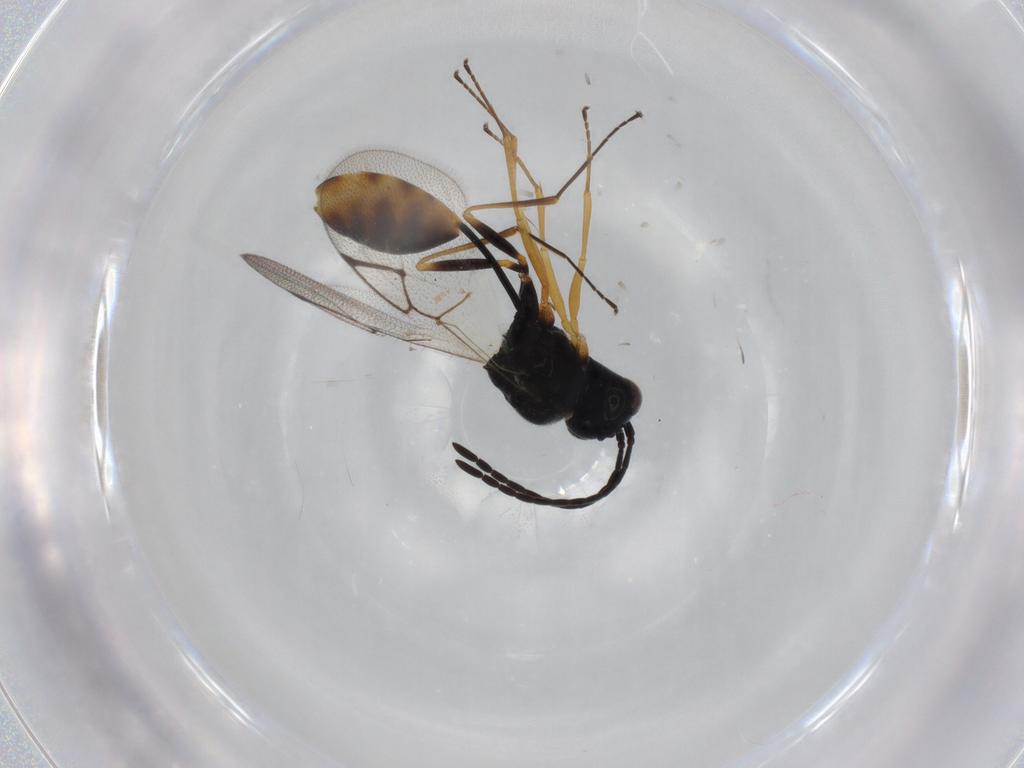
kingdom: Animalia
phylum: Arthropoda
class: Insecta
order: Hymenoptera
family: Figitidae
